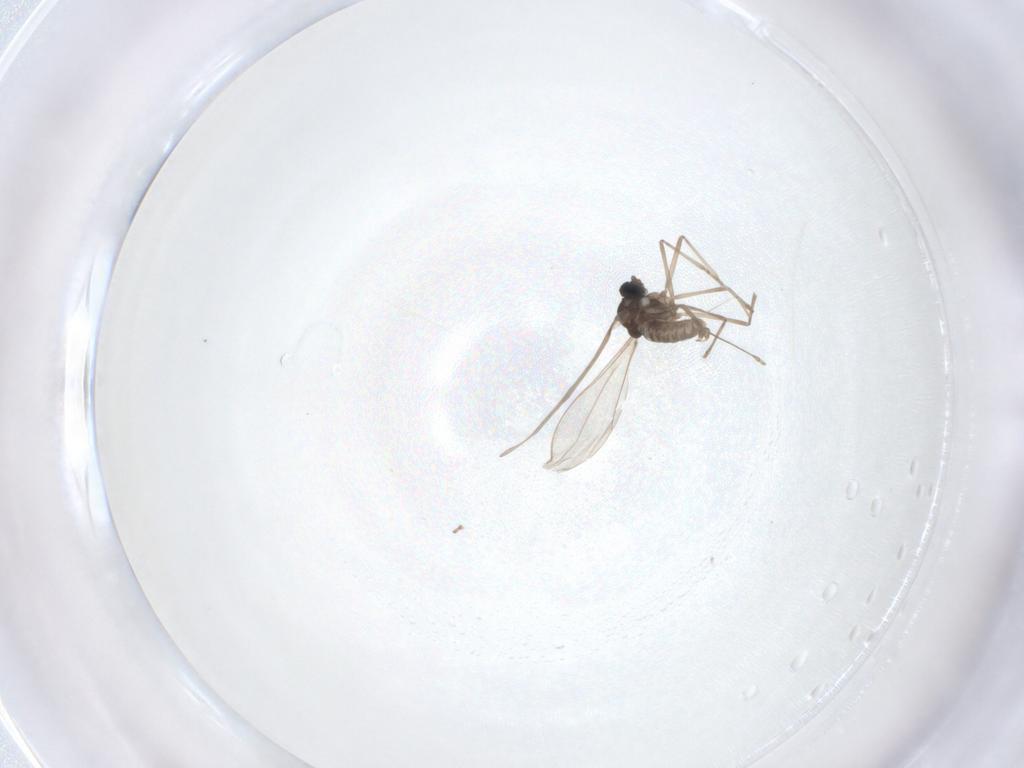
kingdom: Animalia
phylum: Arthropoda
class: Insecta
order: Diptera
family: Cecidomyiidae
